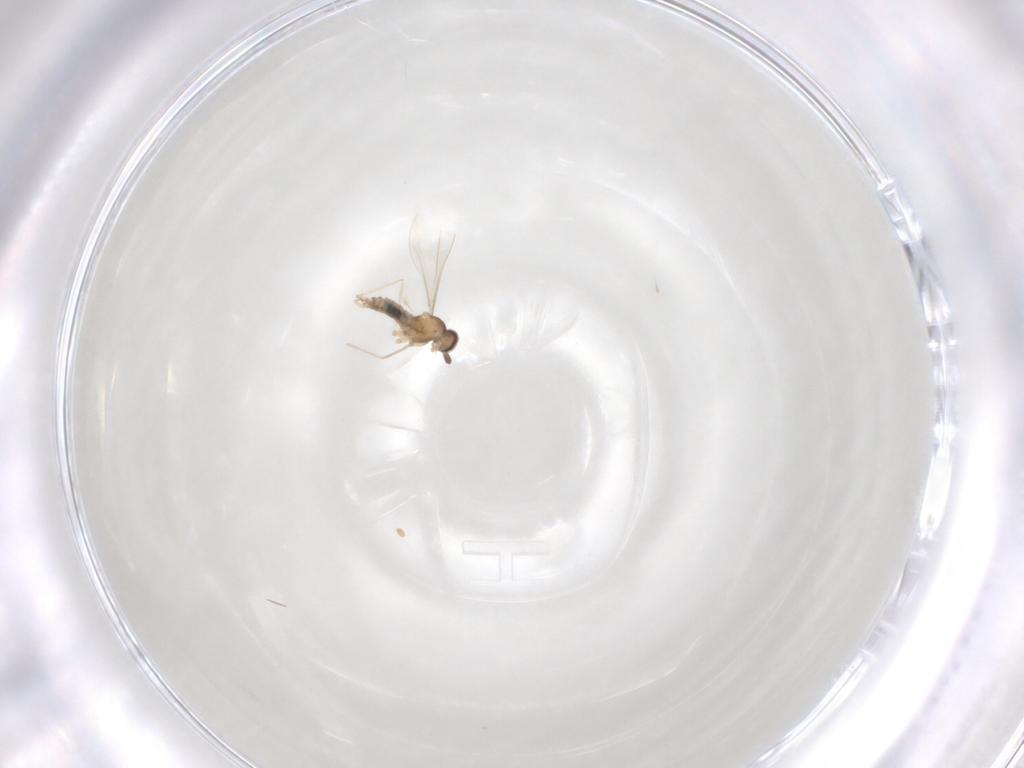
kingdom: Animalia
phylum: Arthropoda
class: Insecta
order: Diptera
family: Cecidomyiidae
